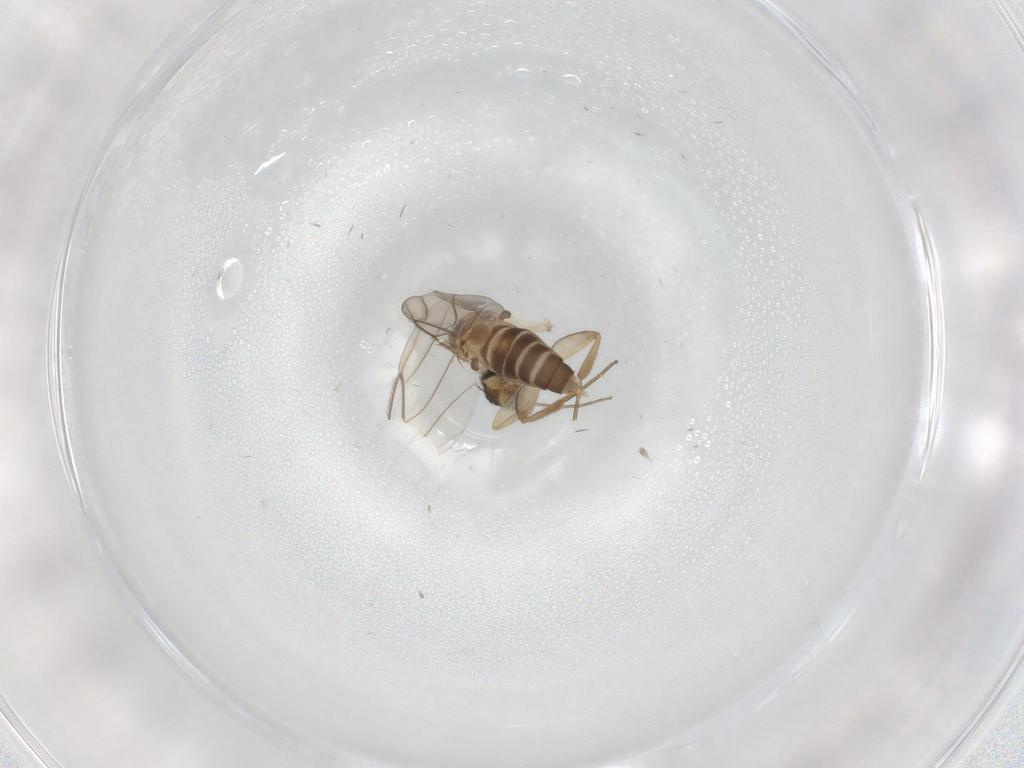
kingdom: Animalia
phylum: Arthropoda
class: Insecta
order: Diptera
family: Phoridae
